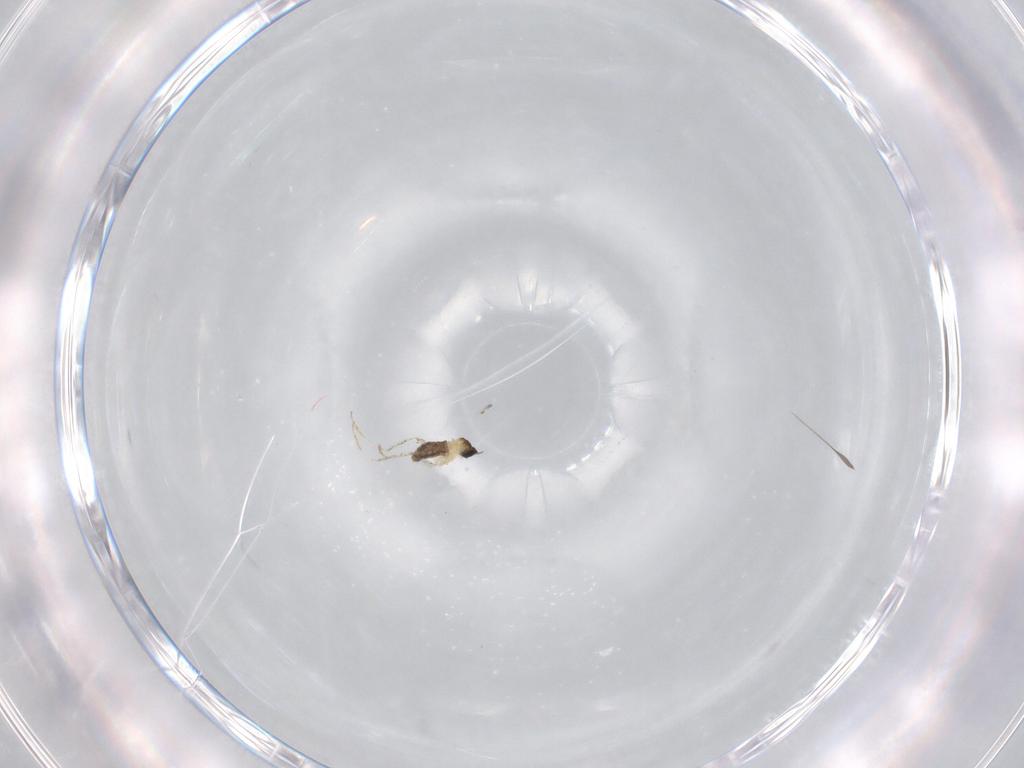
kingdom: Animalia
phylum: Arthropoda
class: Insecta
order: Diptera
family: Cecidomyiidae
